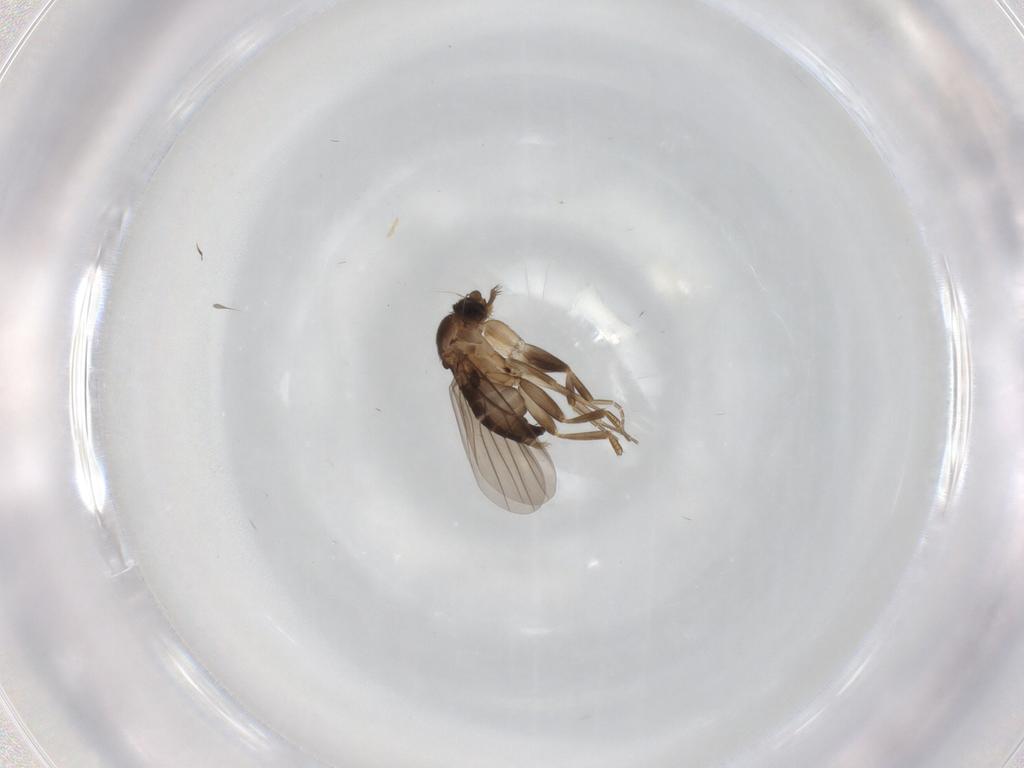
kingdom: Animalia
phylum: Arthropoda
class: Insecta
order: Diptera
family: Phoridae
